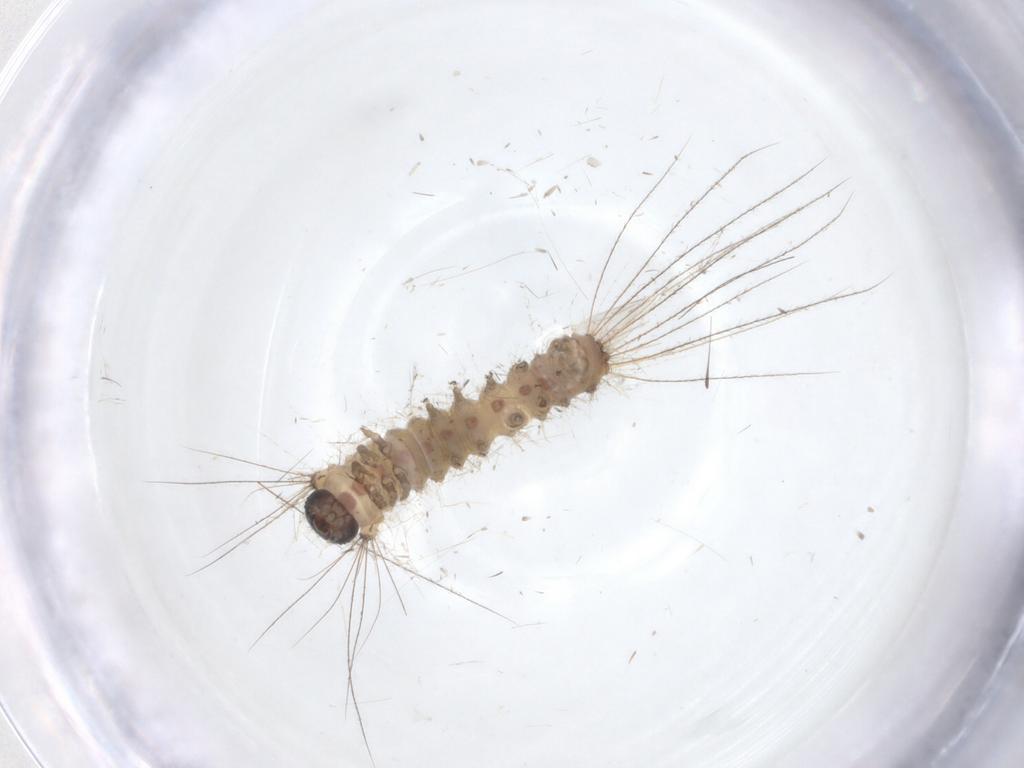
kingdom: Animalia
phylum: Arthropoda
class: Insecta
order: Lepidoptera
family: Erebidae
